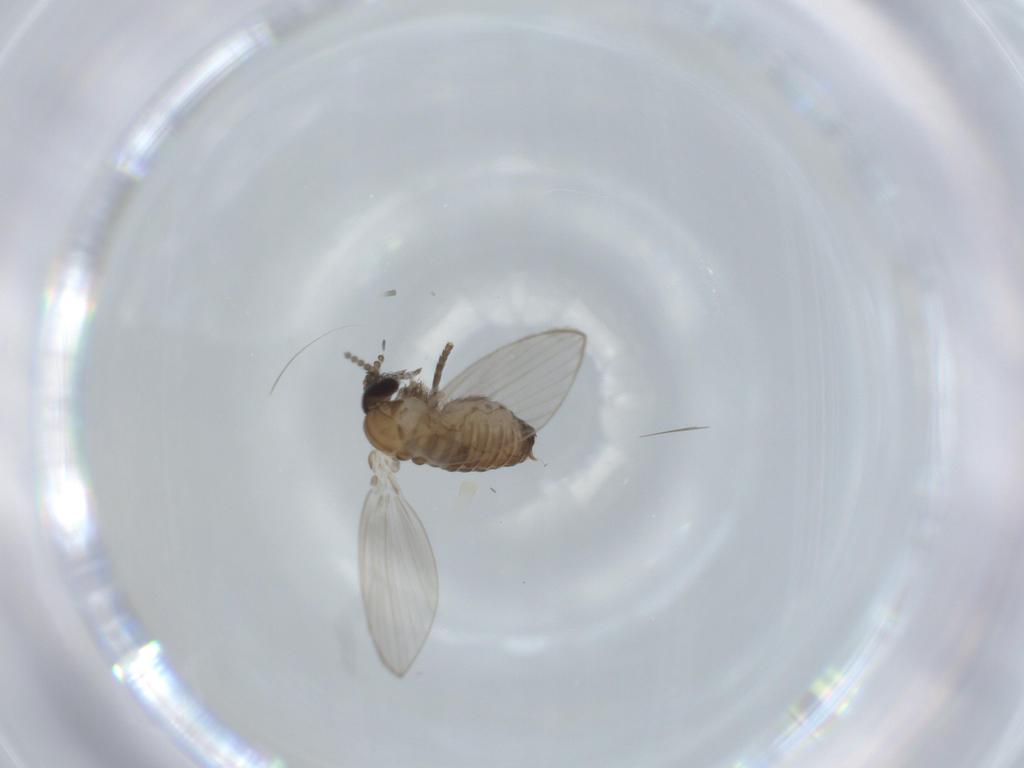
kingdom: Animalia
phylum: Arthropoda
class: Insecta
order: Diptera
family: Psychodidae
